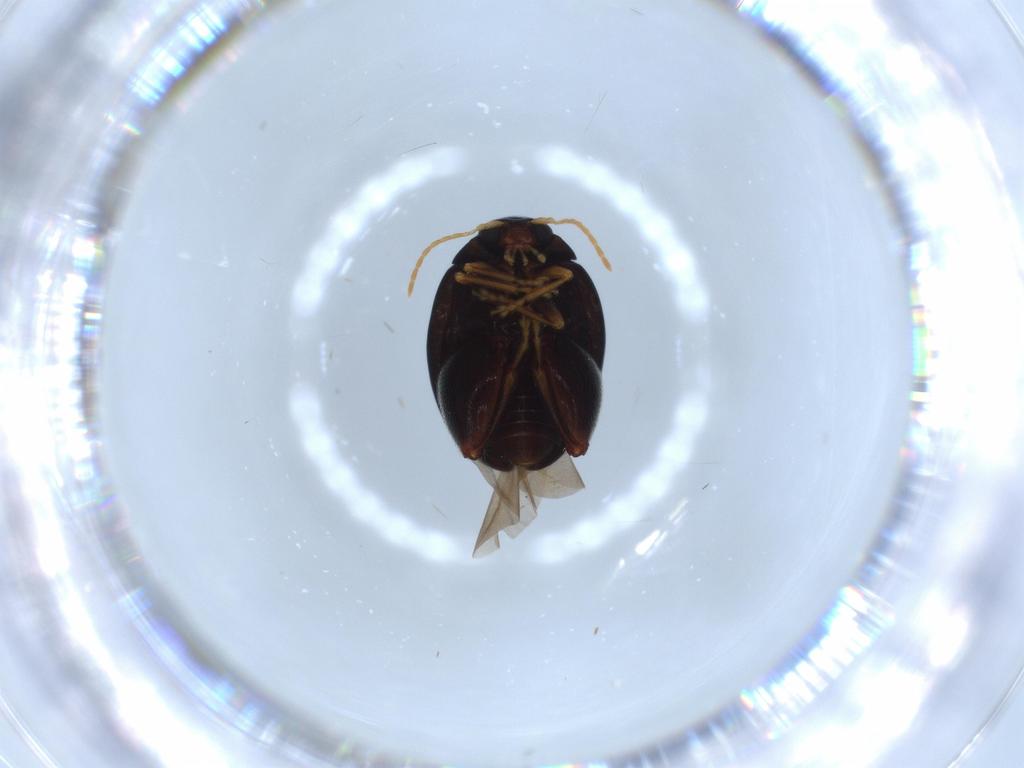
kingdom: Animalia
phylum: Arthropoda
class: Insecta
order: Coleoptera
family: Chrysomelidae
